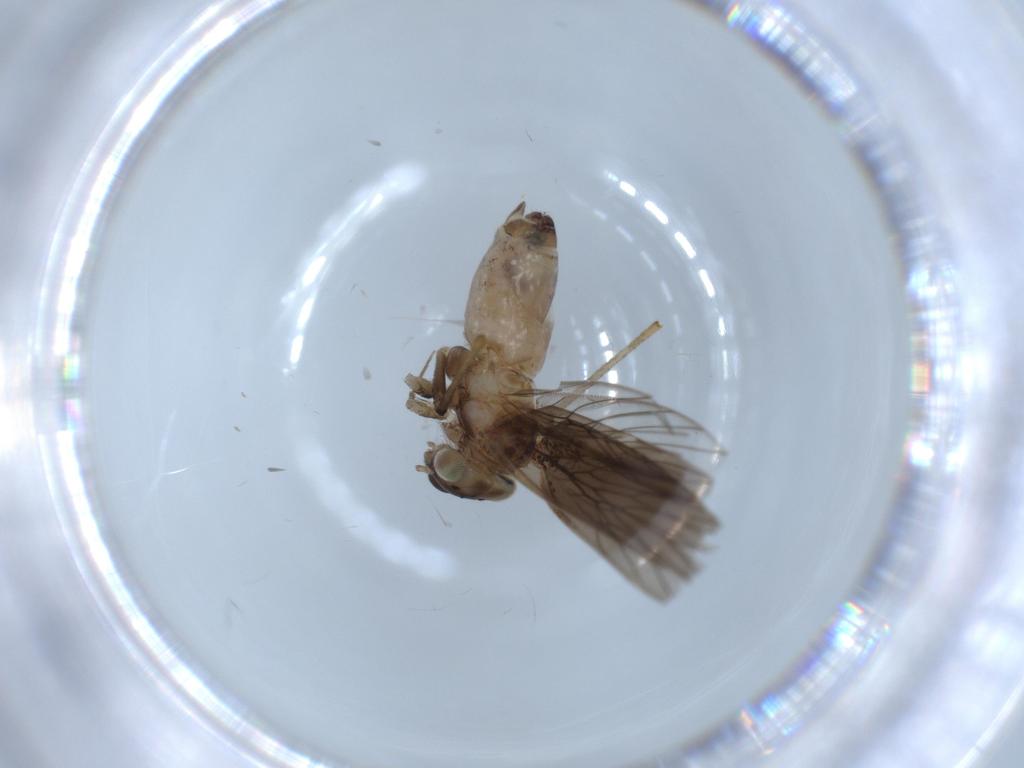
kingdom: Animalia
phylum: Arthropoda
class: Insecta
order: Psocodea
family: Lepidopsocidae
